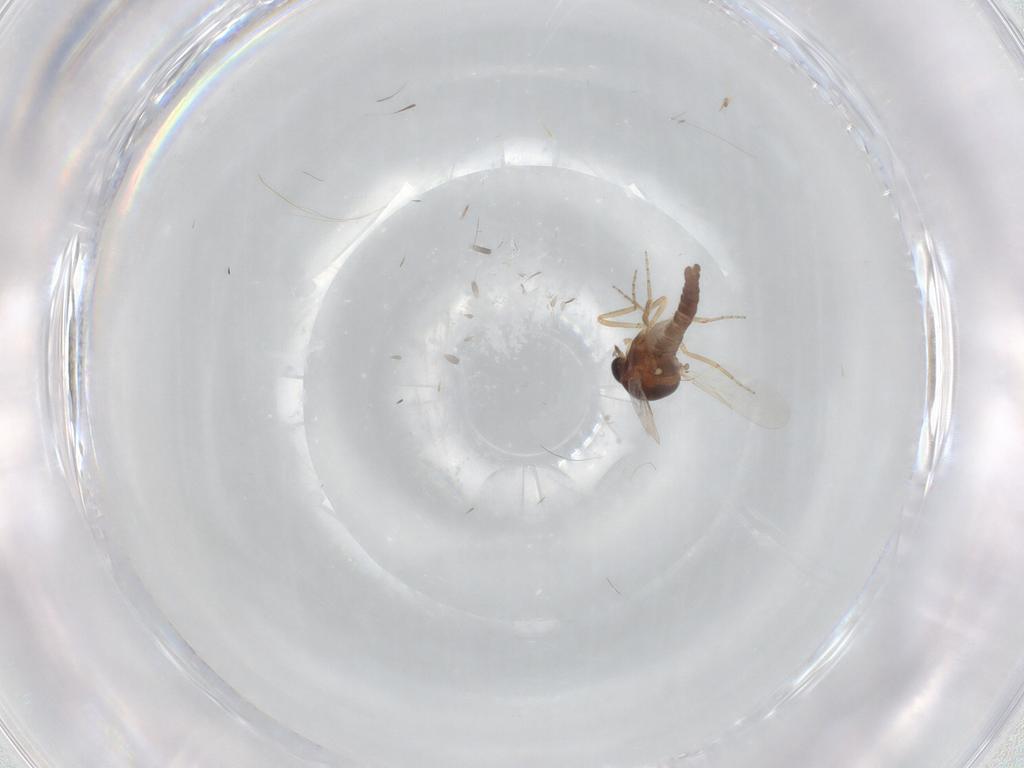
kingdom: Animalia
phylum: Arthropoda
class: Insecta
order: Diptera
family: Ceratopogonidae
